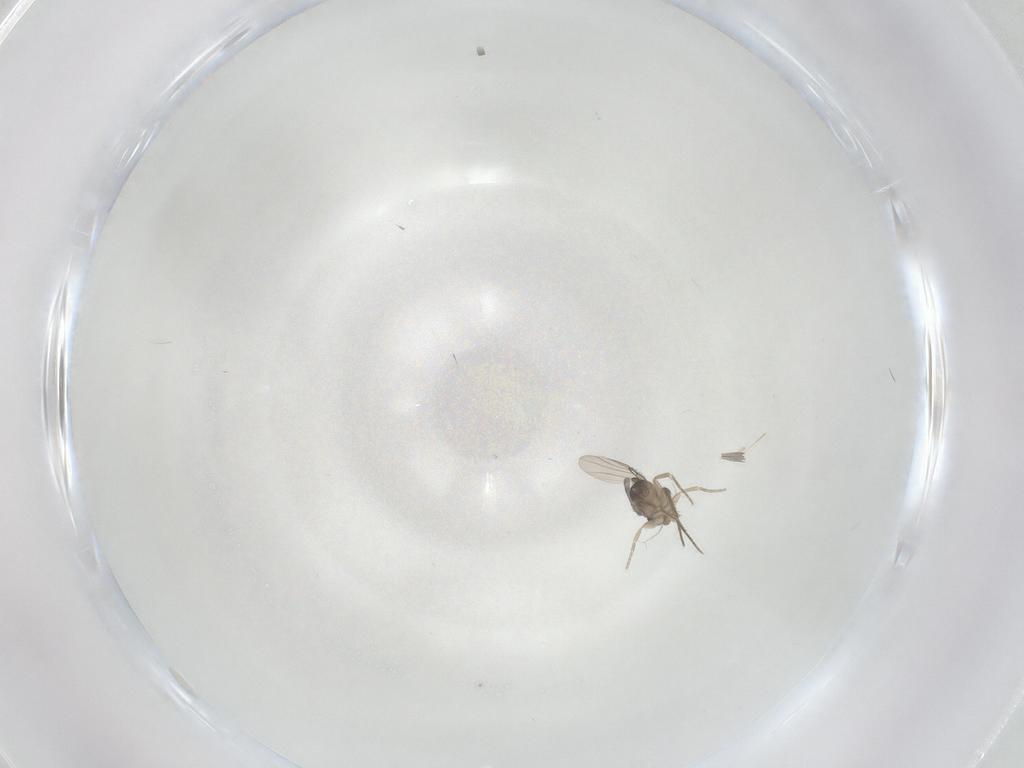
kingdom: Animalia
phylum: Arthropoda
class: Insecta
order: Diptera
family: Phoridae
